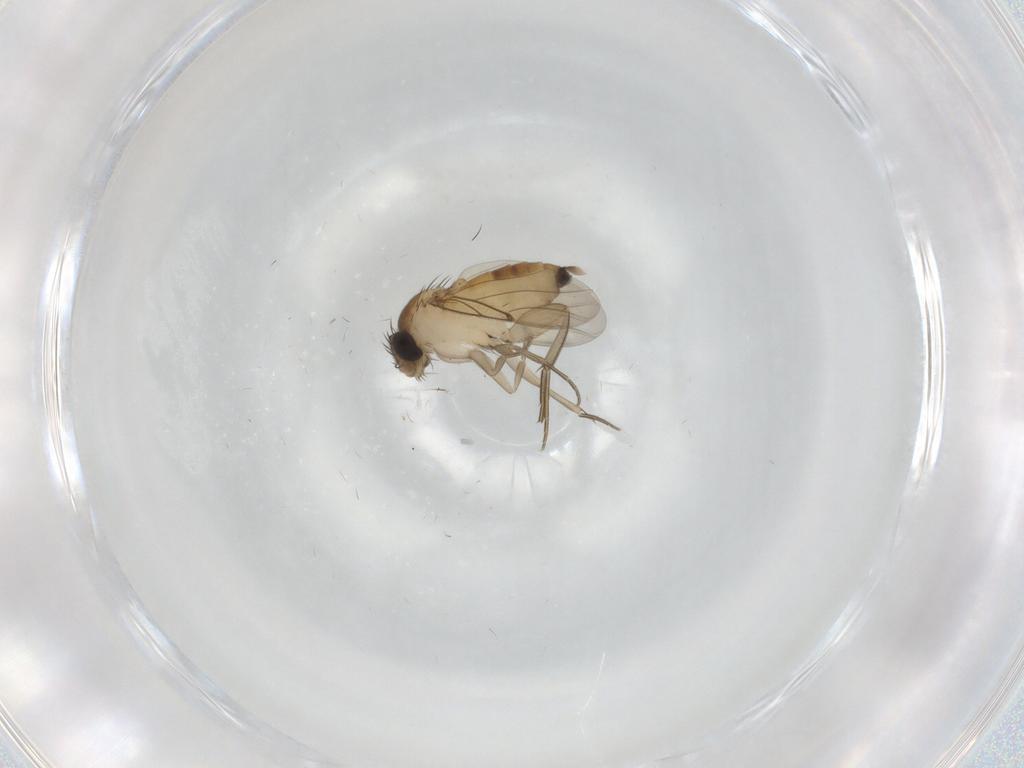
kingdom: Animalia
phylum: Arthropoda
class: Insecta
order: Diptera
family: Phoridae
